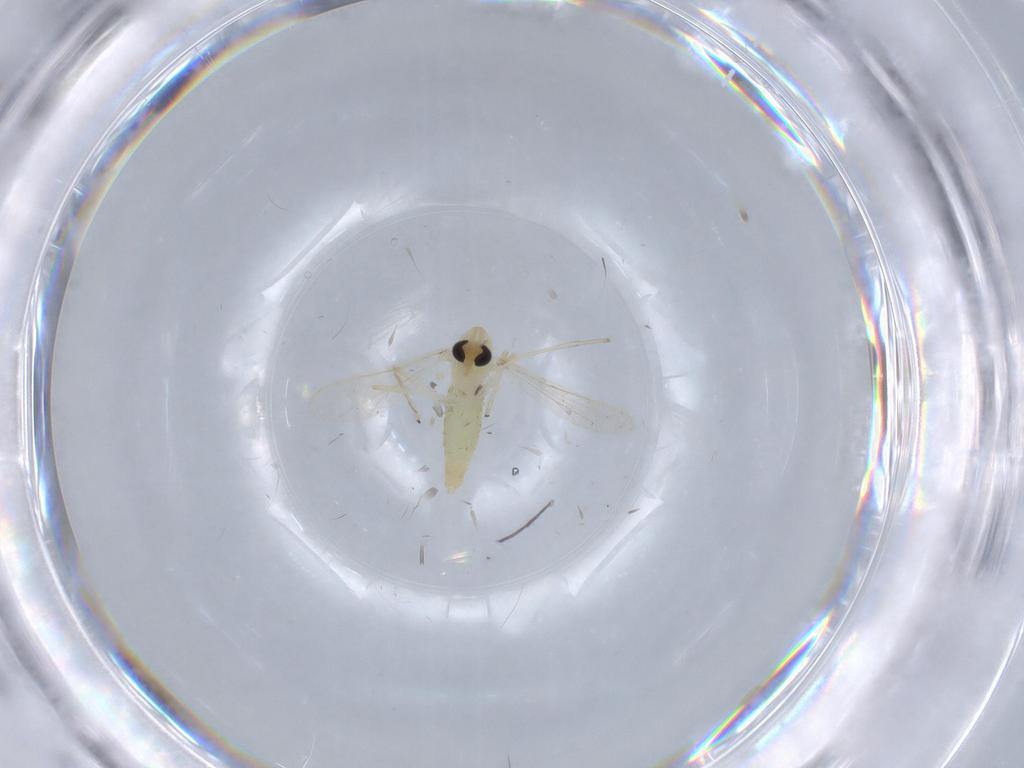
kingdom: Animalia
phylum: Arthropoda
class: Insecta
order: Diptera
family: Chironomidae
